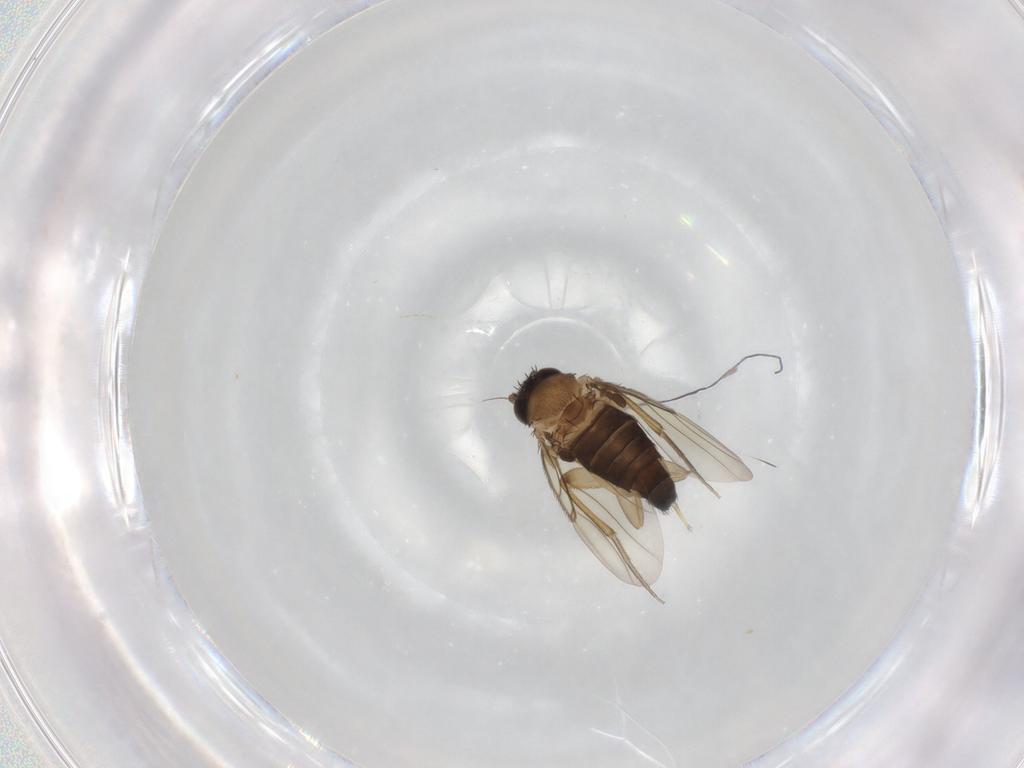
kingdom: Animalia
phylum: Arthropoda
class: Insecta
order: Diptera
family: Phoridae
